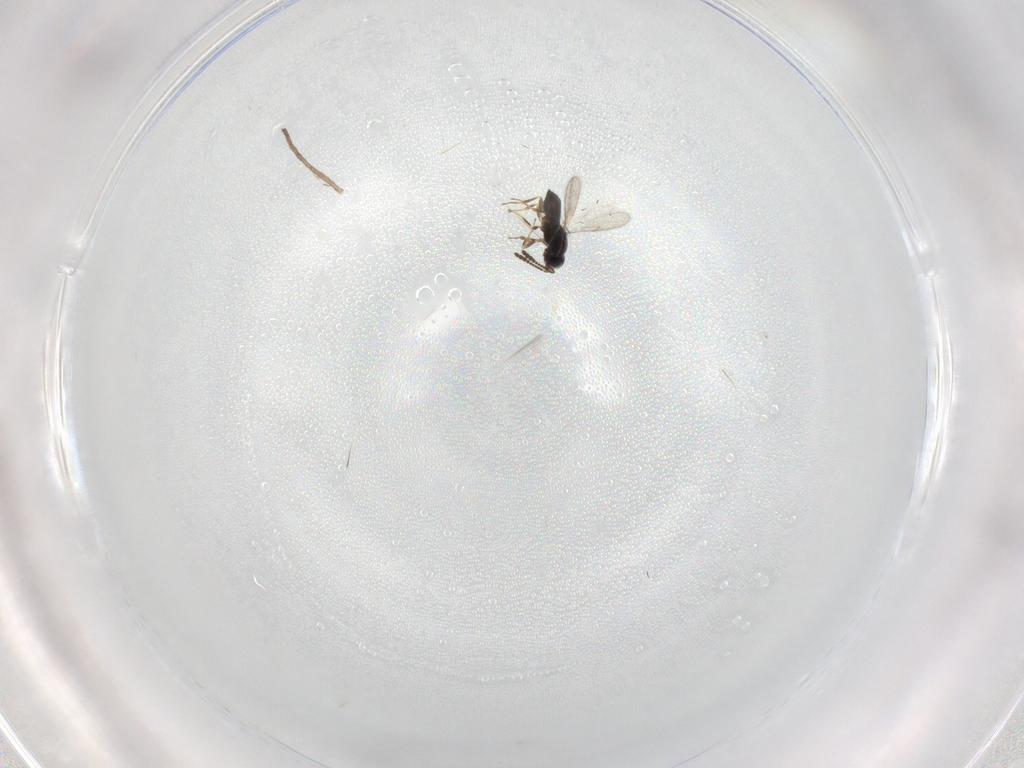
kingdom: Animalia
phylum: Arthropoda
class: Insecta
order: Hymenoptera
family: Scelionidae
